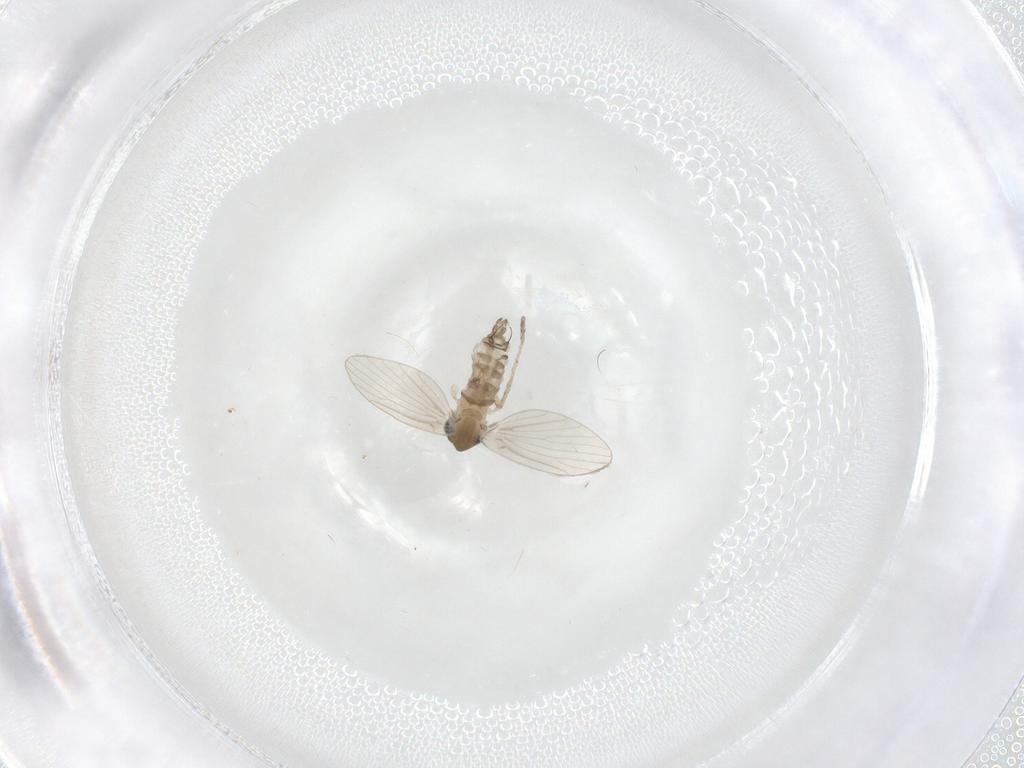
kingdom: Animalia
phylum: Arthropoda
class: Insecta
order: Diptera
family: Psychodidae
